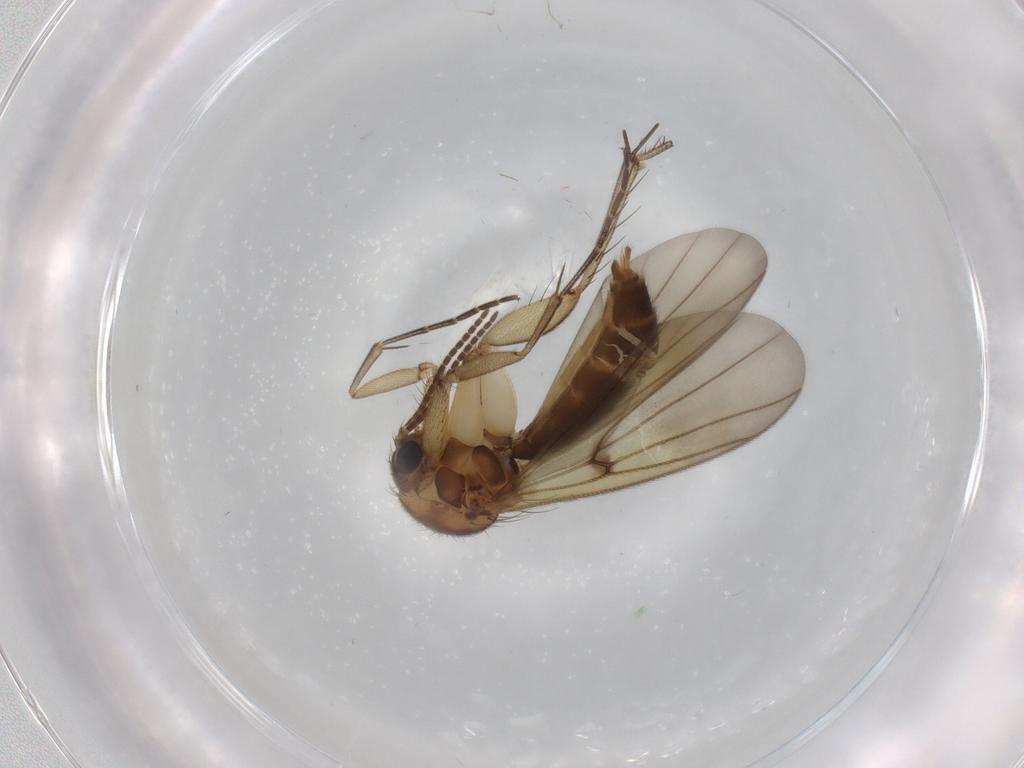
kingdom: Animalia
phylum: Arthropoda
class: Insecta
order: Diptera
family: Mycetophilidae
